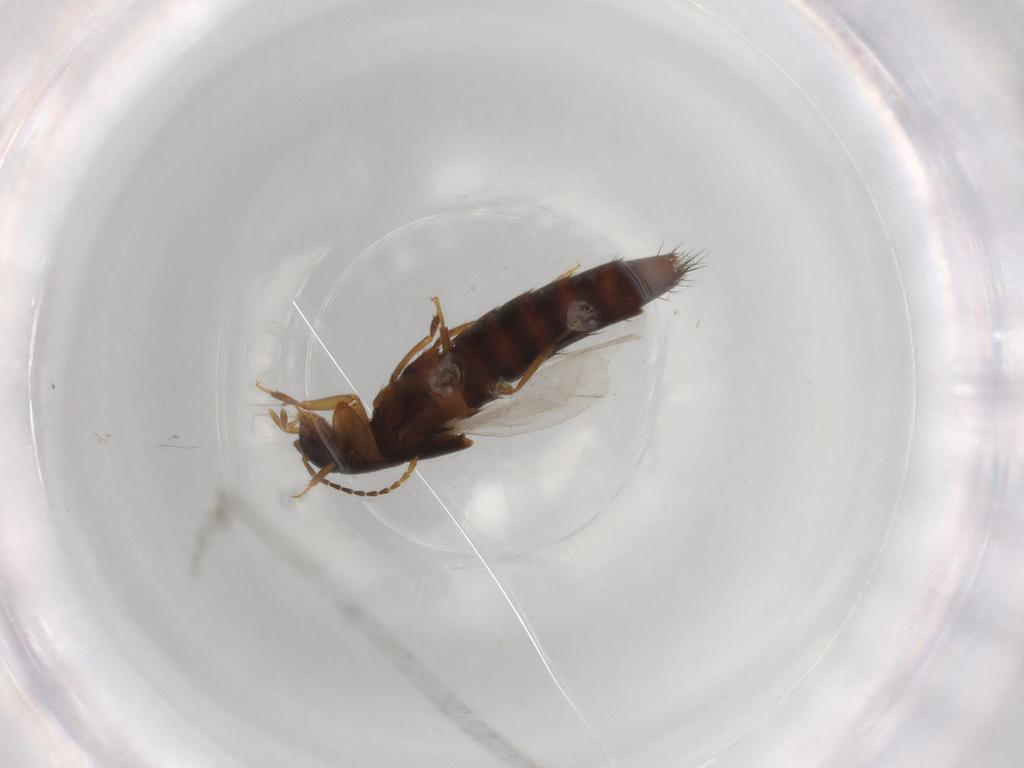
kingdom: Animalia
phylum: Arthropoda
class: Insecta
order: Coleoptera
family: Staphylinidae
